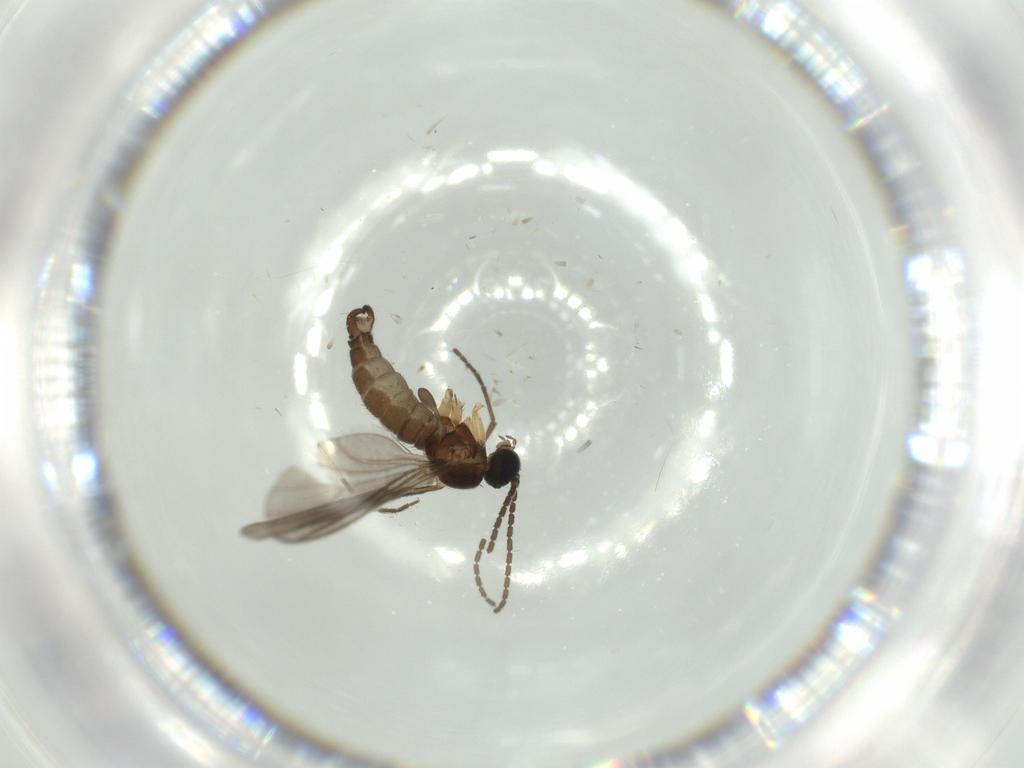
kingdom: Animalia
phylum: Arthropoda
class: Insecta
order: Diptera
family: Sciaridae
